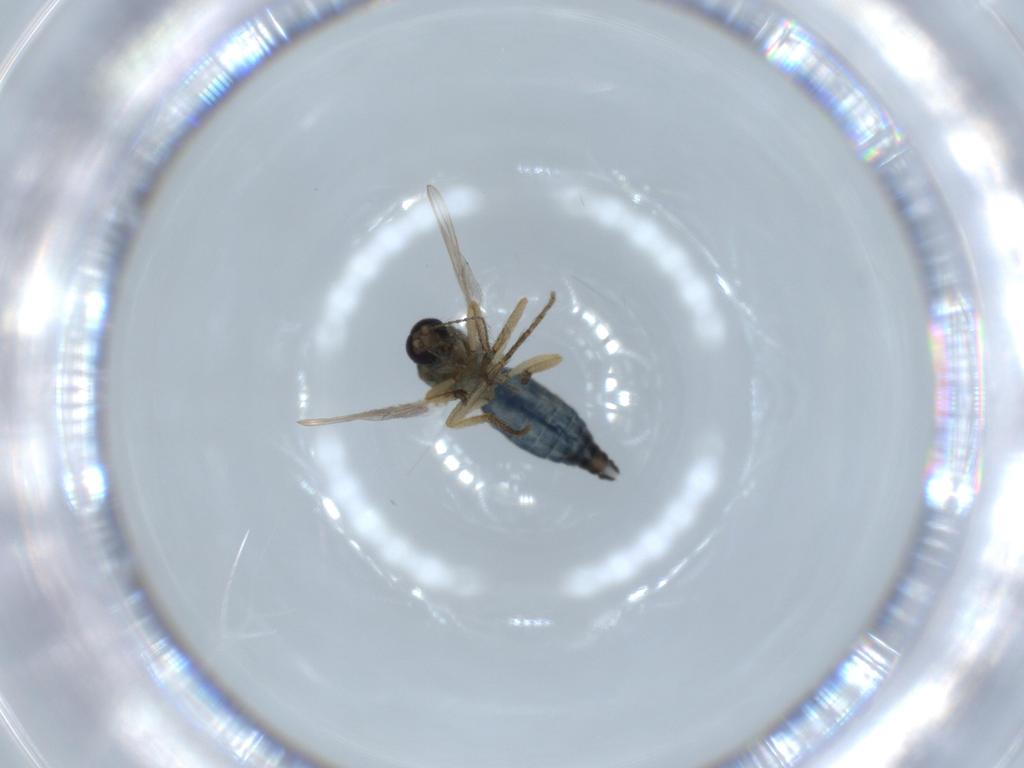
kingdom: Animalia
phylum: Arthropoda
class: Insecta
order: Diptera
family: Ceratopogonidae
